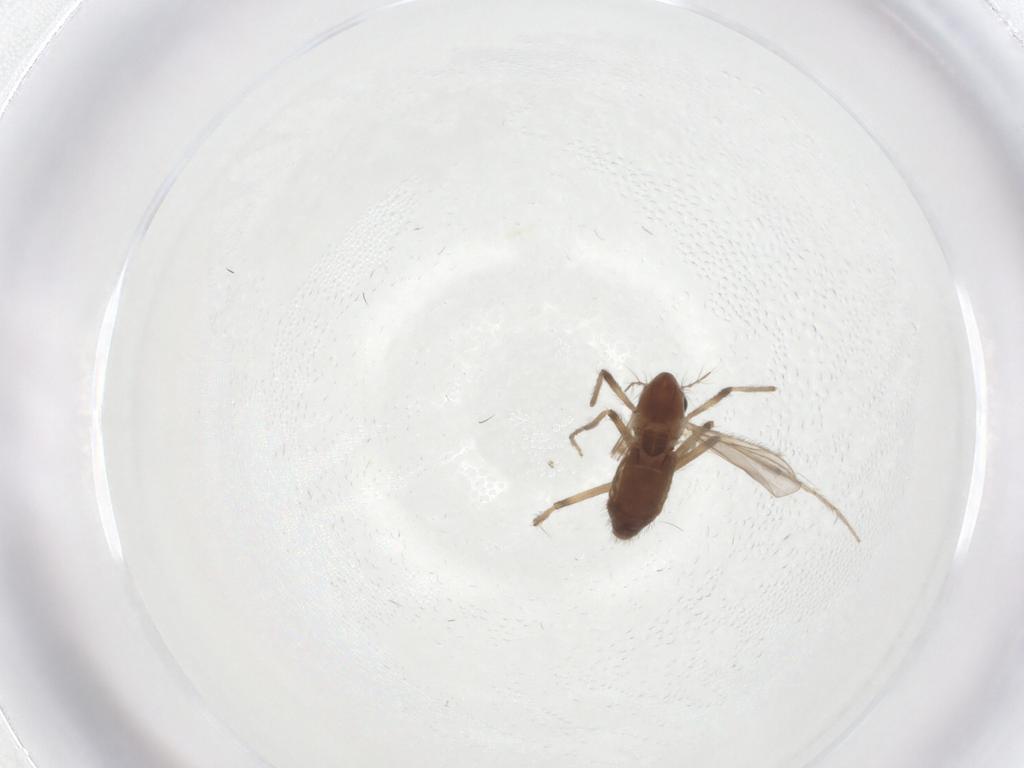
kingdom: Animalia
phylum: Arthropoda
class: Insecta
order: Diptera
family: Chironomidae
